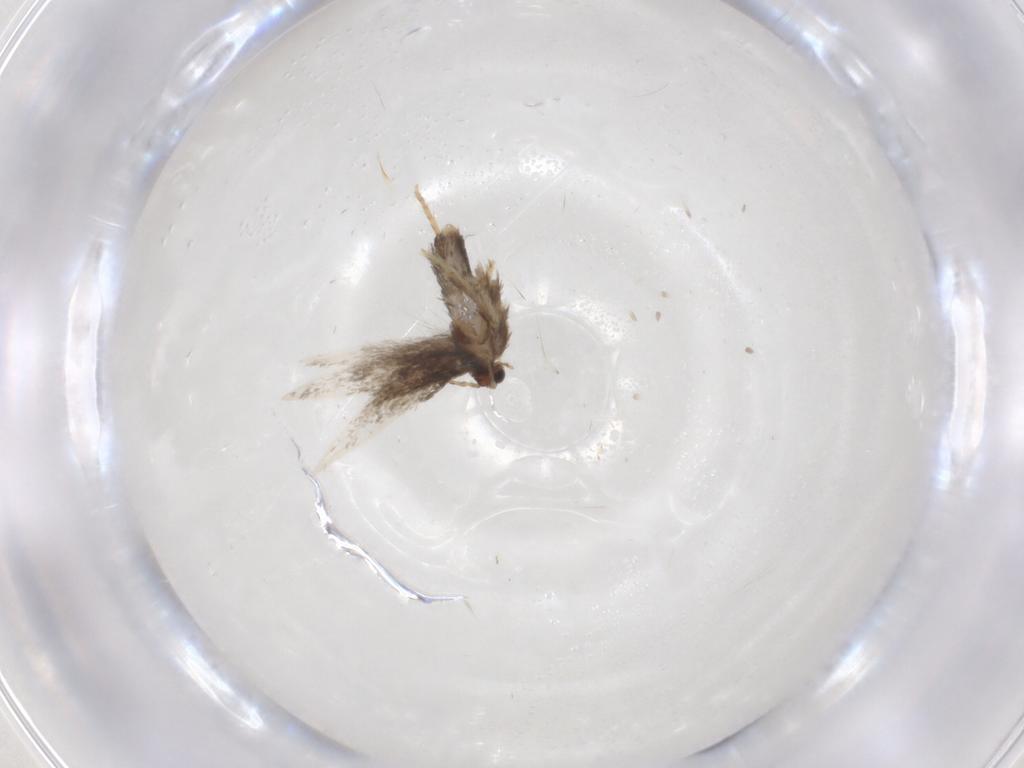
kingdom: Animalia
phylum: Arthropoda
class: Insecta
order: Lepidoptera
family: Nepticulidae
